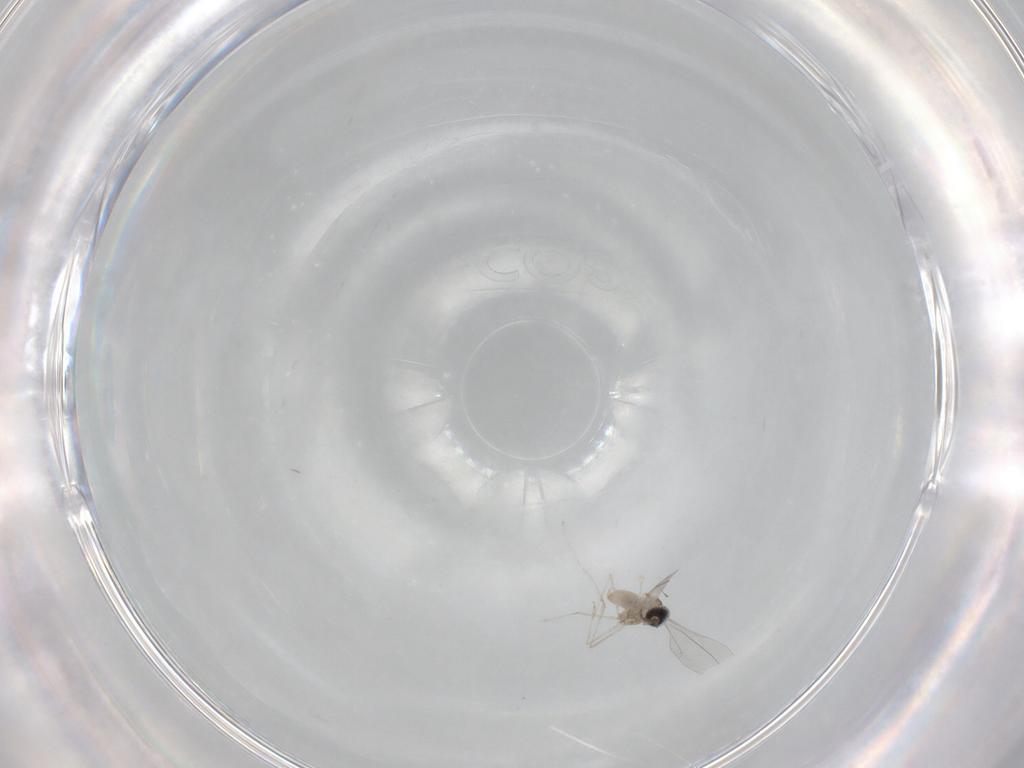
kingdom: Animalia
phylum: Arthropoda
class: Insecta
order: Diptera
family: Cecidomyiidae
